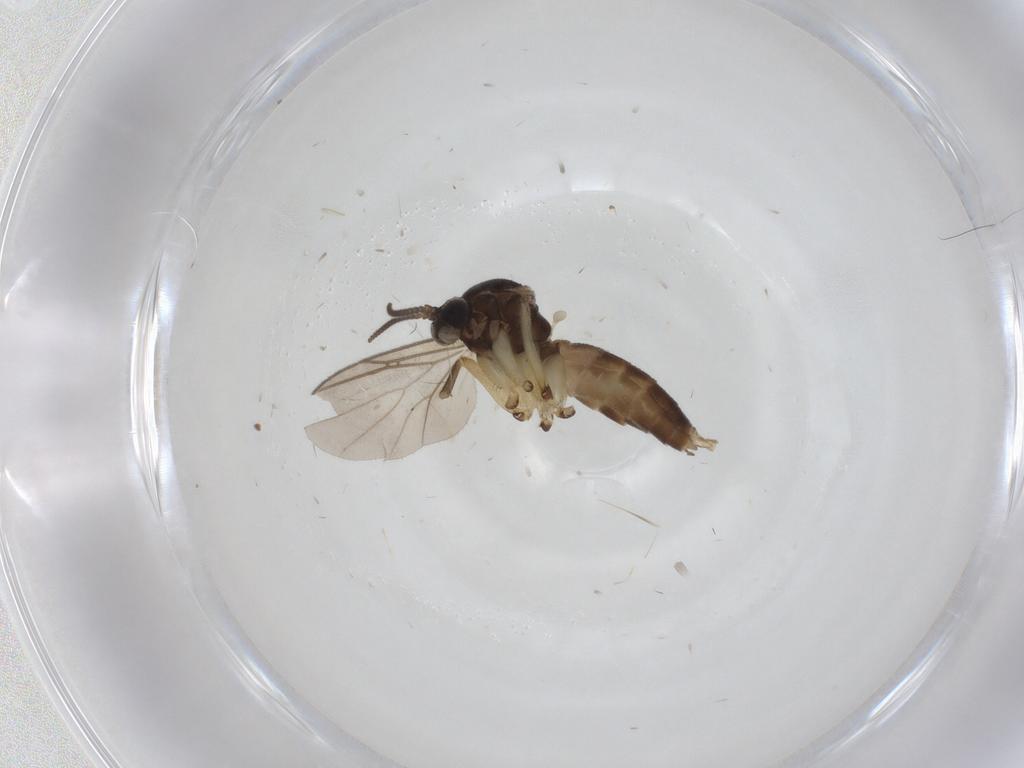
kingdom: Animalia
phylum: Arthropoda
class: Insecta
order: Diptera
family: Mycetophilidae
